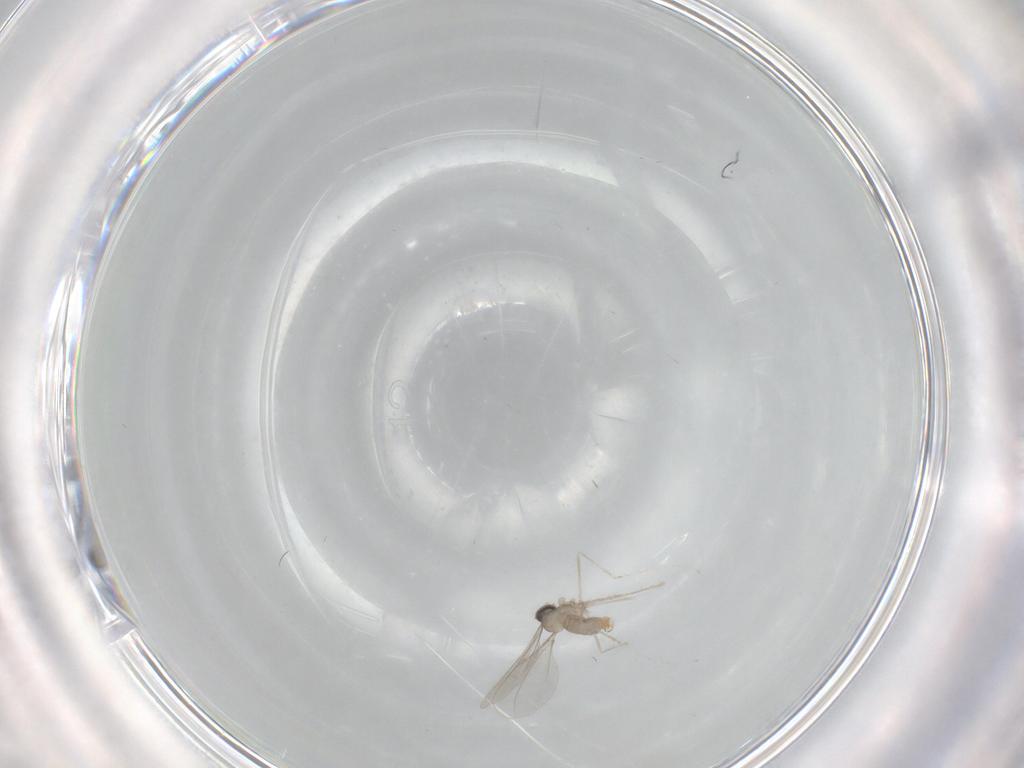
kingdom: Animalia
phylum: Arthropoda
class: Insecta
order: Diptera
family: Cecidomyiidae
